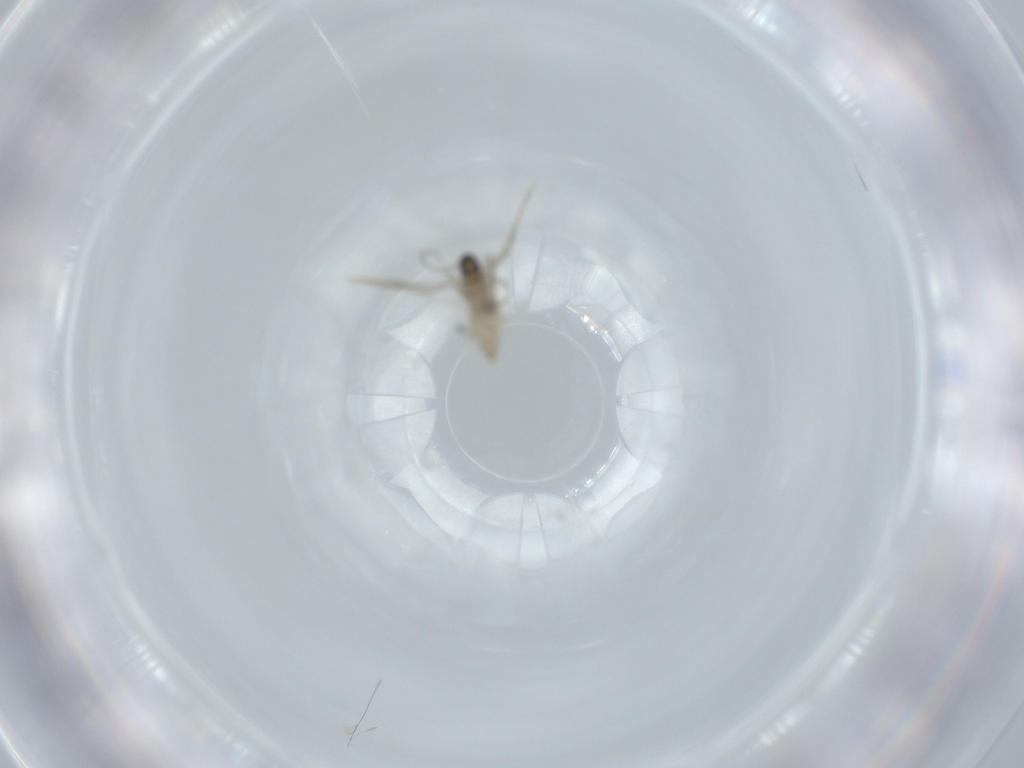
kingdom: Animalia
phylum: Arthropoda
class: Insecta
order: Diptera
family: Cecidomyiidae
